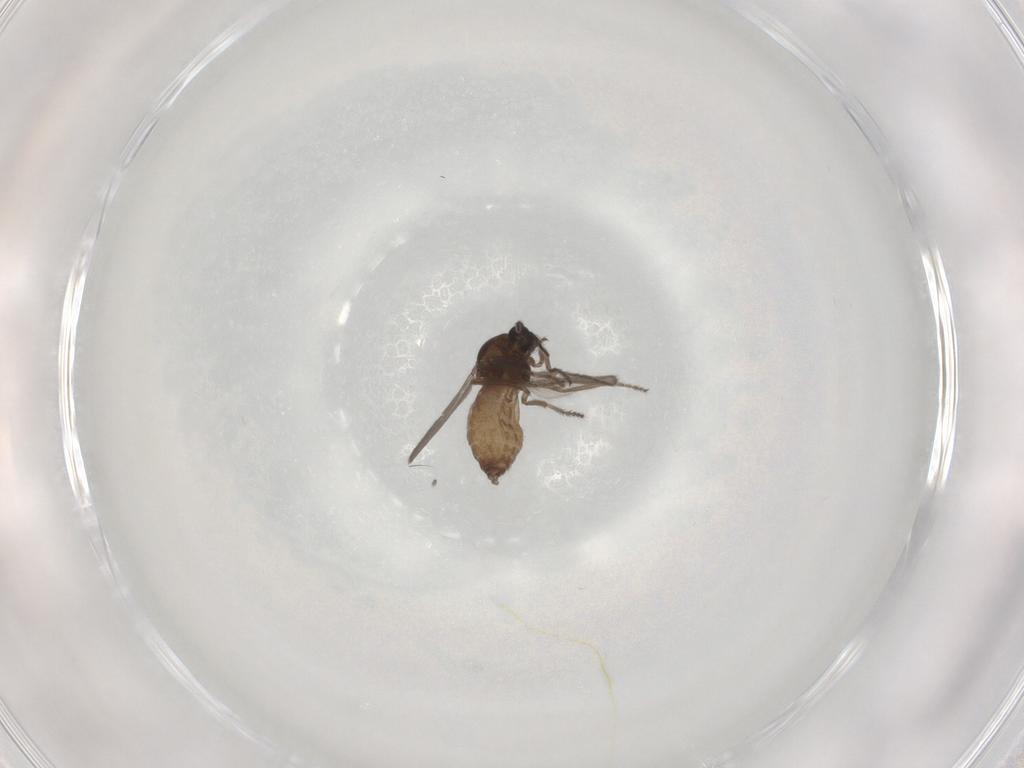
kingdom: Animalia
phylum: Arthropoda
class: Insecta
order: Diptera
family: Ceratopogonidae
